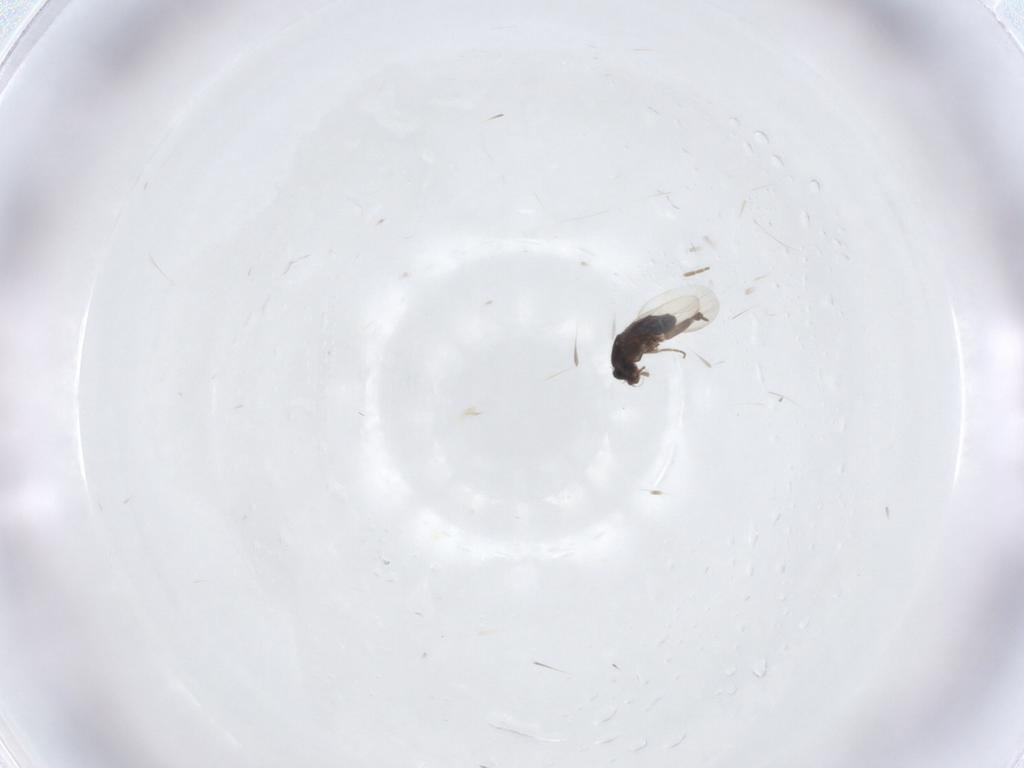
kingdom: Animalia
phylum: Arthropoda
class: Insecta
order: Diptera
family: Phoridae
